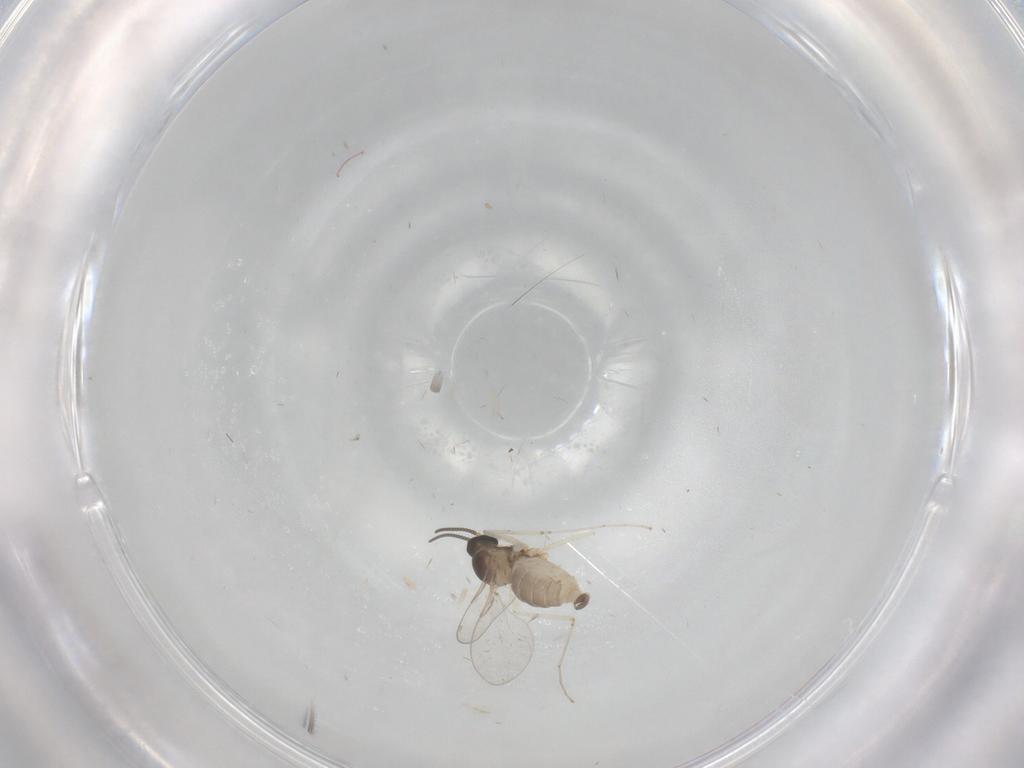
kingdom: Animalia
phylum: Arthropoda
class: Insecta
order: Diptera
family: Cecidomyiidae
